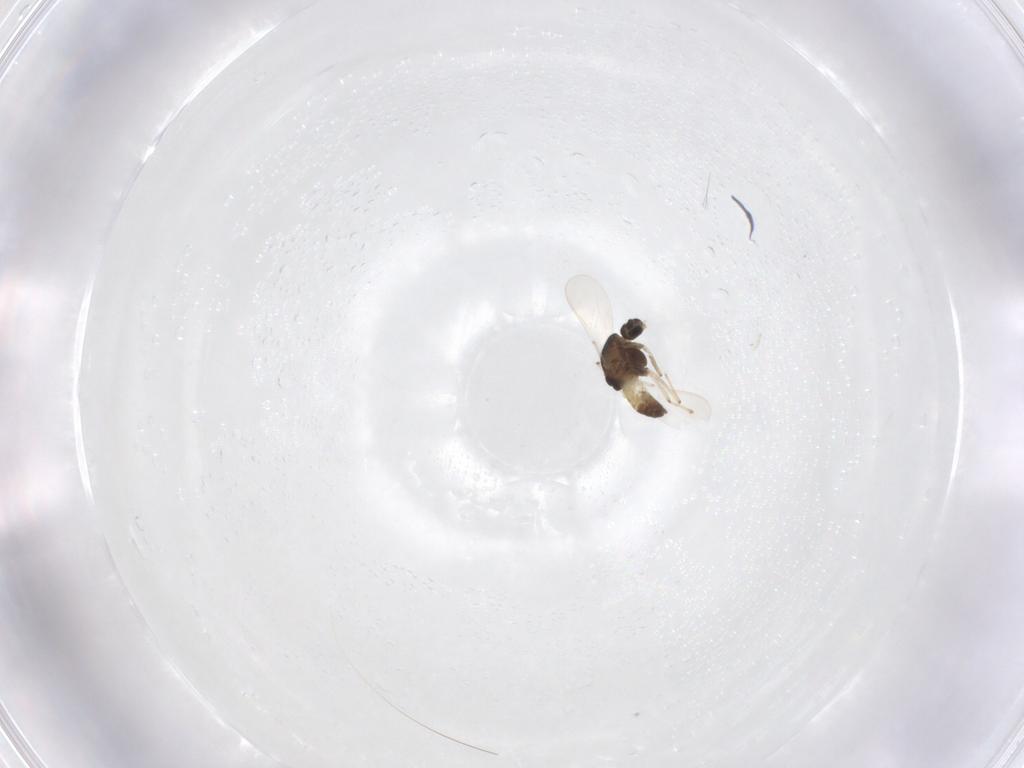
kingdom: Animalia
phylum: Arthropoda
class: Insecta
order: Diptera
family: Chironomidae
